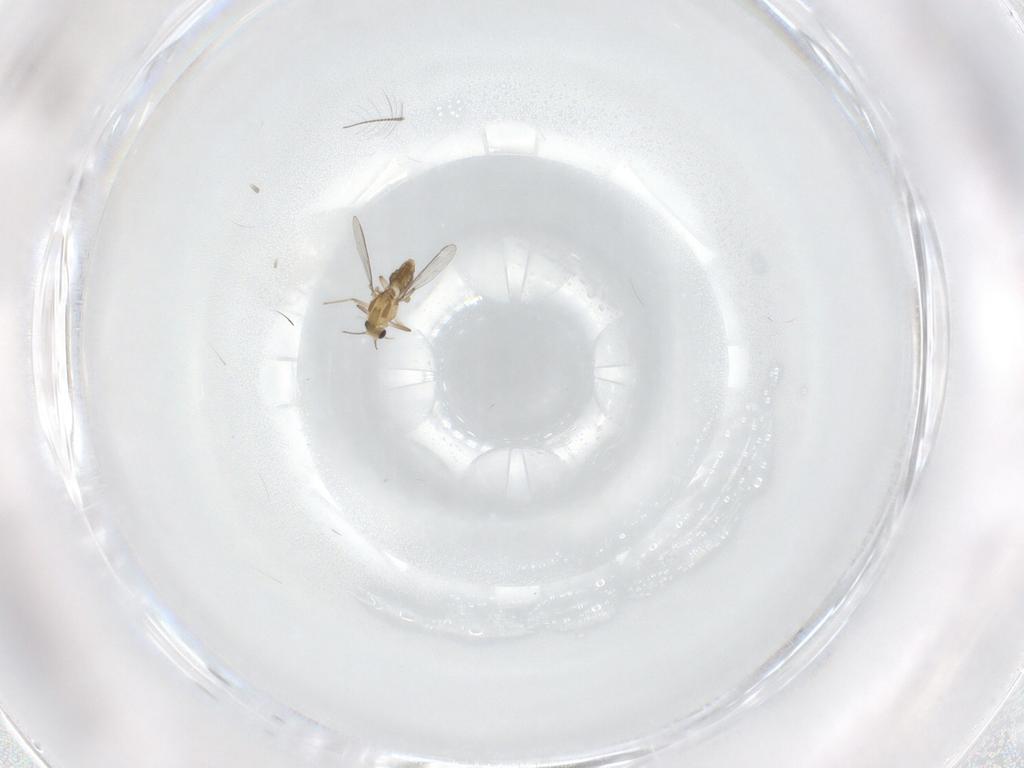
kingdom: Animalia
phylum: Arthropoda
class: Insecta
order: Diptera
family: Chironomidae
